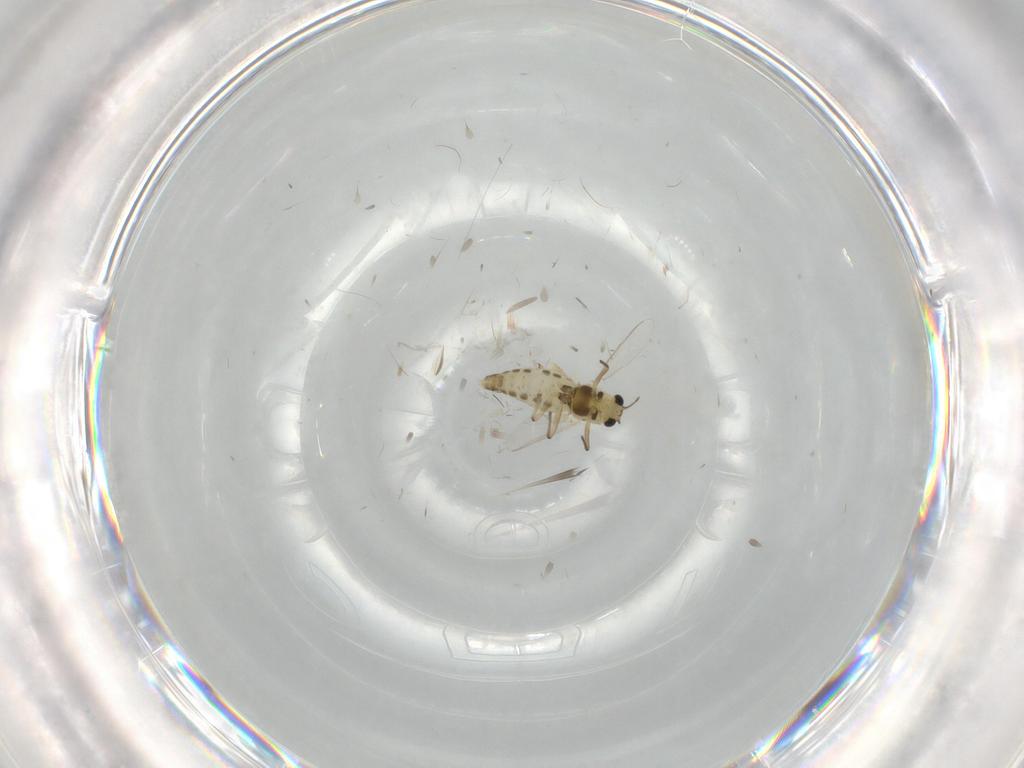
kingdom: Animalia
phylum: Arthropoda
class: Insecta
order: Diptera
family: Chironomidae
